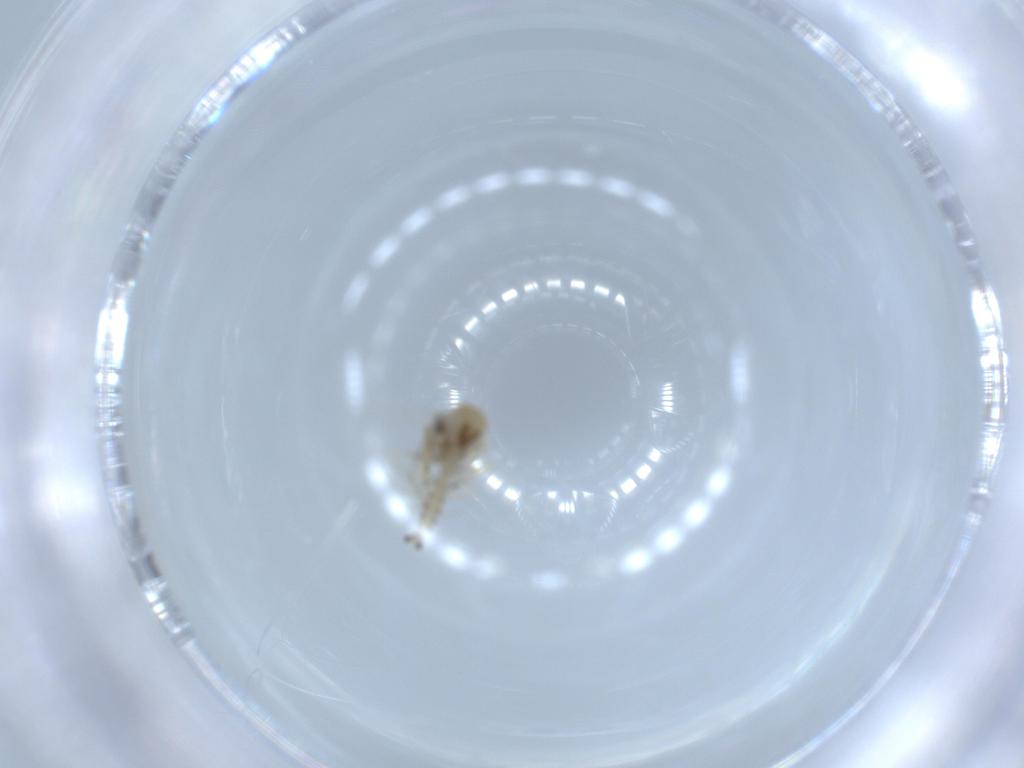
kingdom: Animalia
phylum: Arthropoda
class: Insecta
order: Diptera
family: Ceratopogonidae
